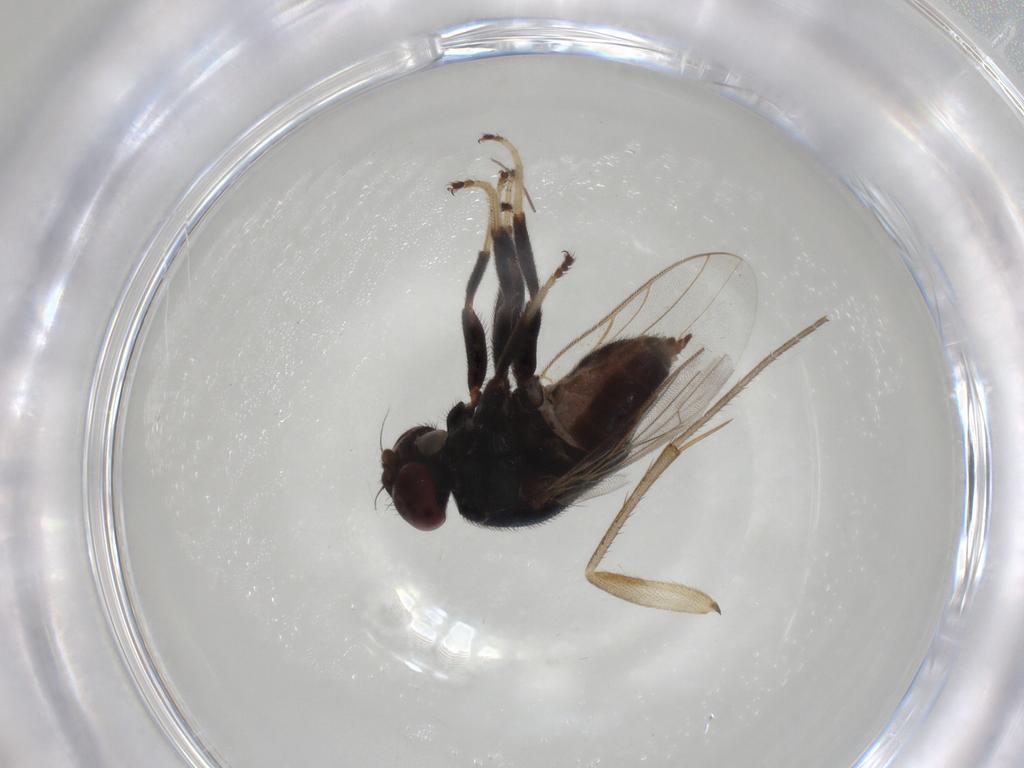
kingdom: Animalia
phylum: Arthropoda
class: Insecta
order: Diptera
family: Chloropidae
